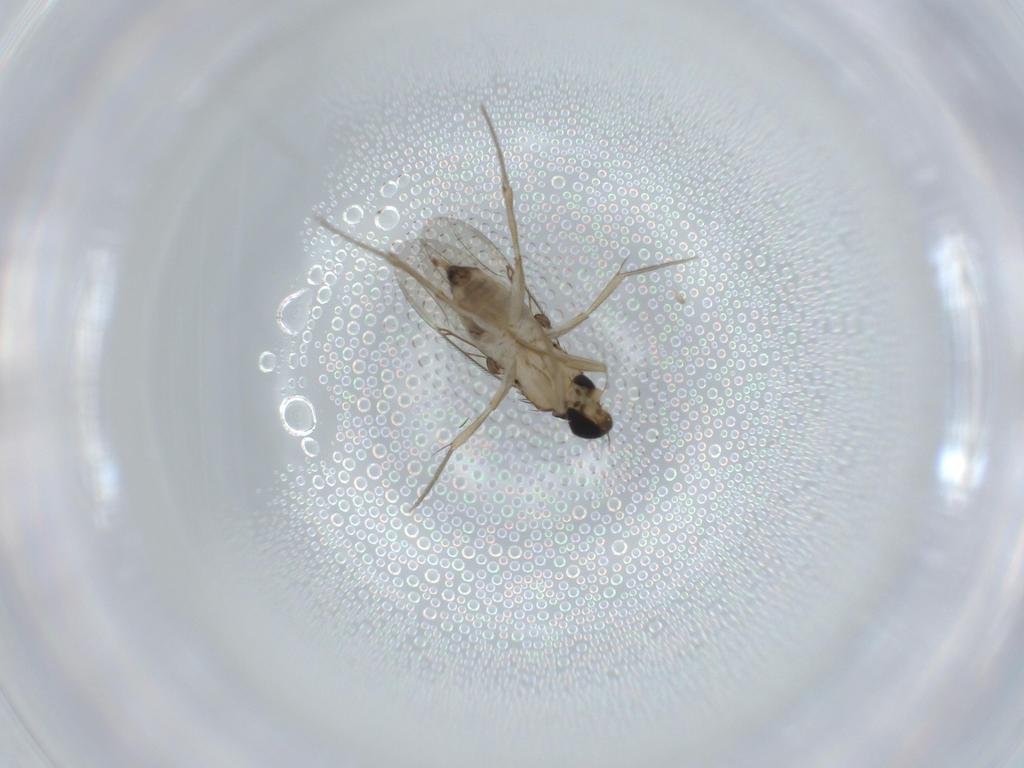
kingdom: Animalia
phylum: Arthropoda
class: Insecta
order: Diptera
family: Phoridae
